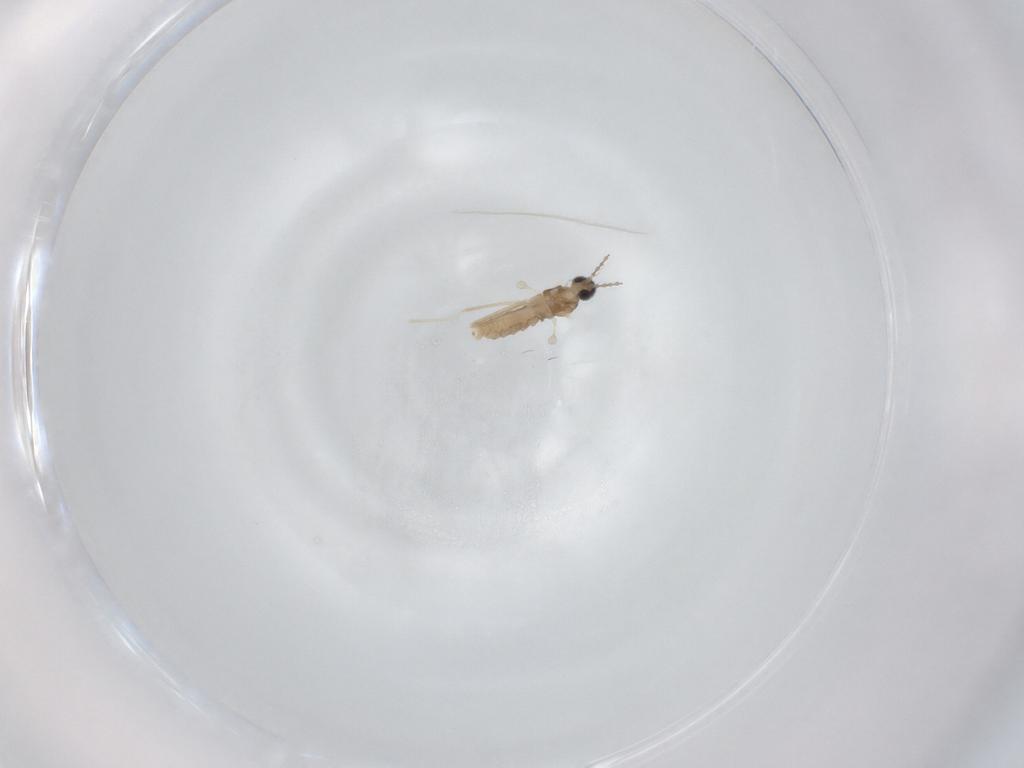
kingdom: Animalia
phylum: Arthropoda
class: Insecta
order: Diptera
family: Cecidomyiidae
